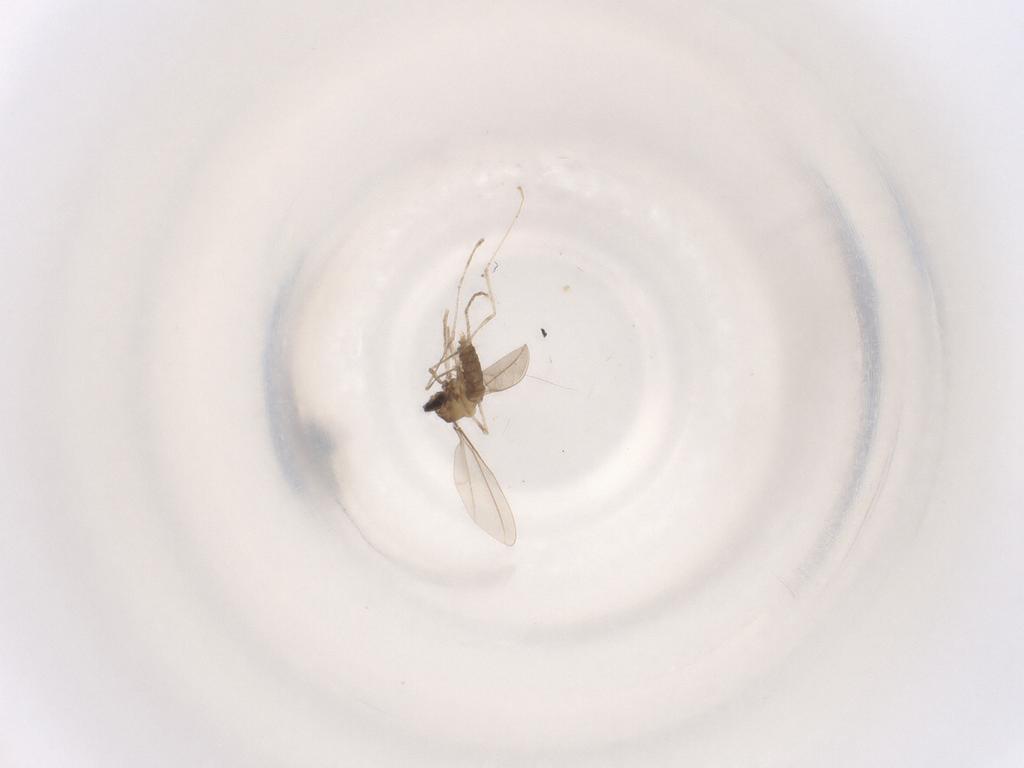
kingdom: Animalia
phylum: Arthropoda
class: Insecta
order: Diptera
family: Cecidomyiidae
